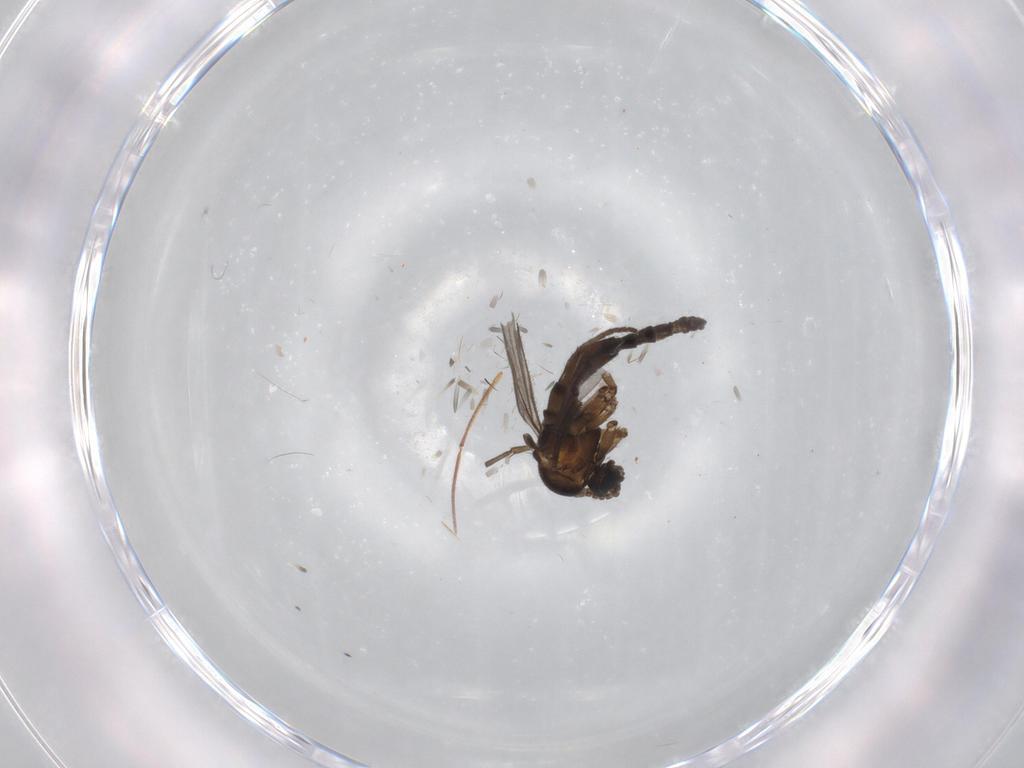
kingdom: Animalia
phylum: Arthropoda
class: Insecta
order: Diptera
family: Sciaridae
